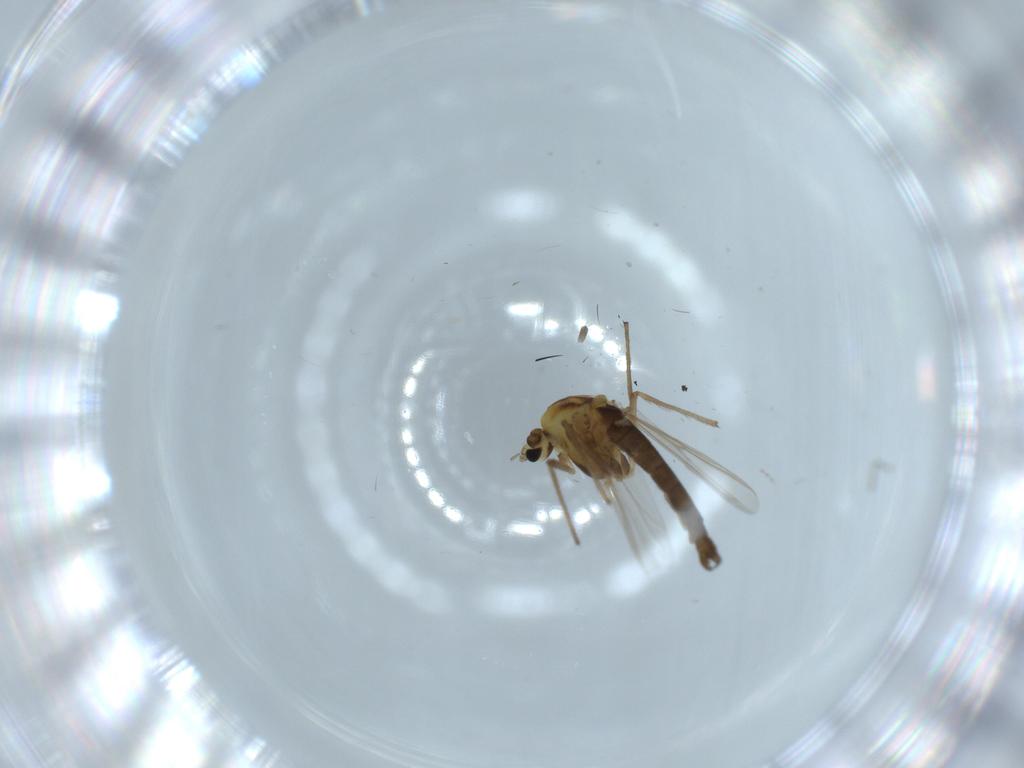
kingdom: Animalia
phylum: Arthropoda
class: Insecta
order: Diptera
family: Chironomidae
